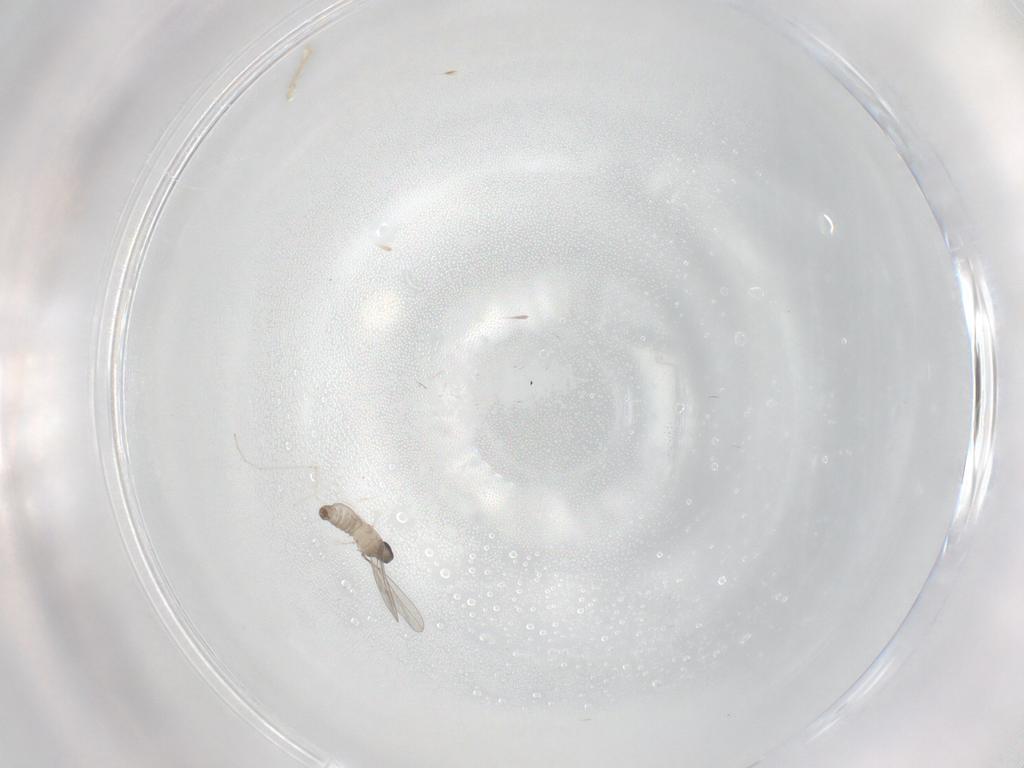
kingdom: Animalia
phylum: Arthropoda
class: Insecta
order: Diptera
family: Cecidomyiidae
